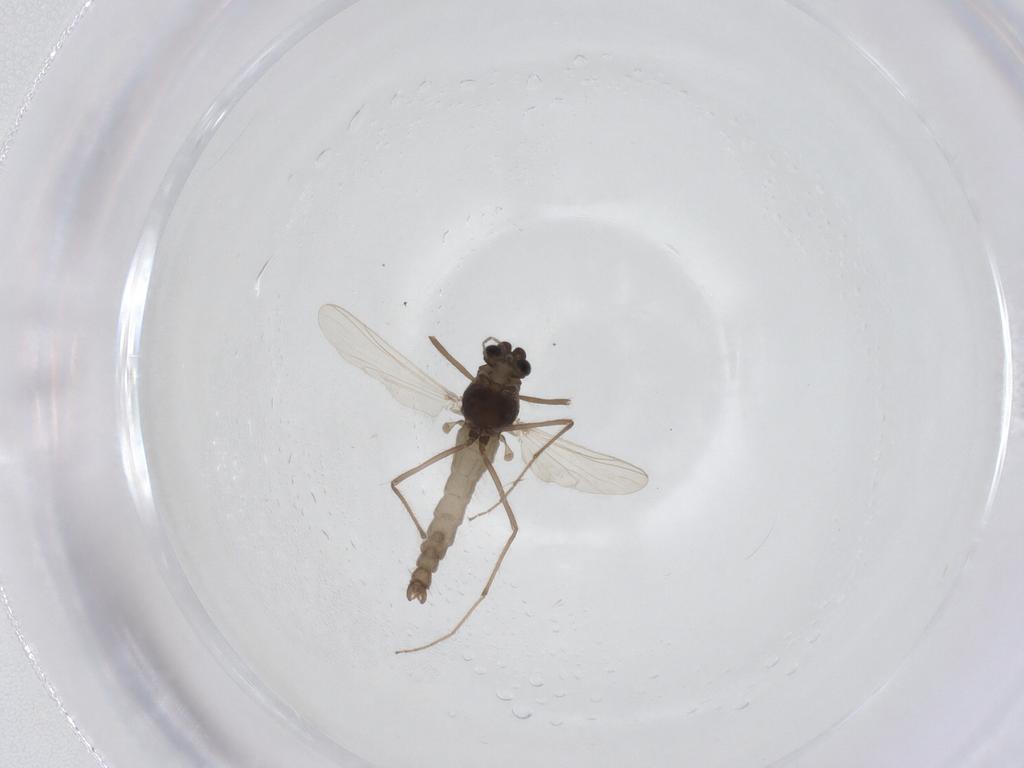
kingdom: Animalia
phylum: Arthropoda
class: Insecta
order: Diptera
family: Chironomidae
